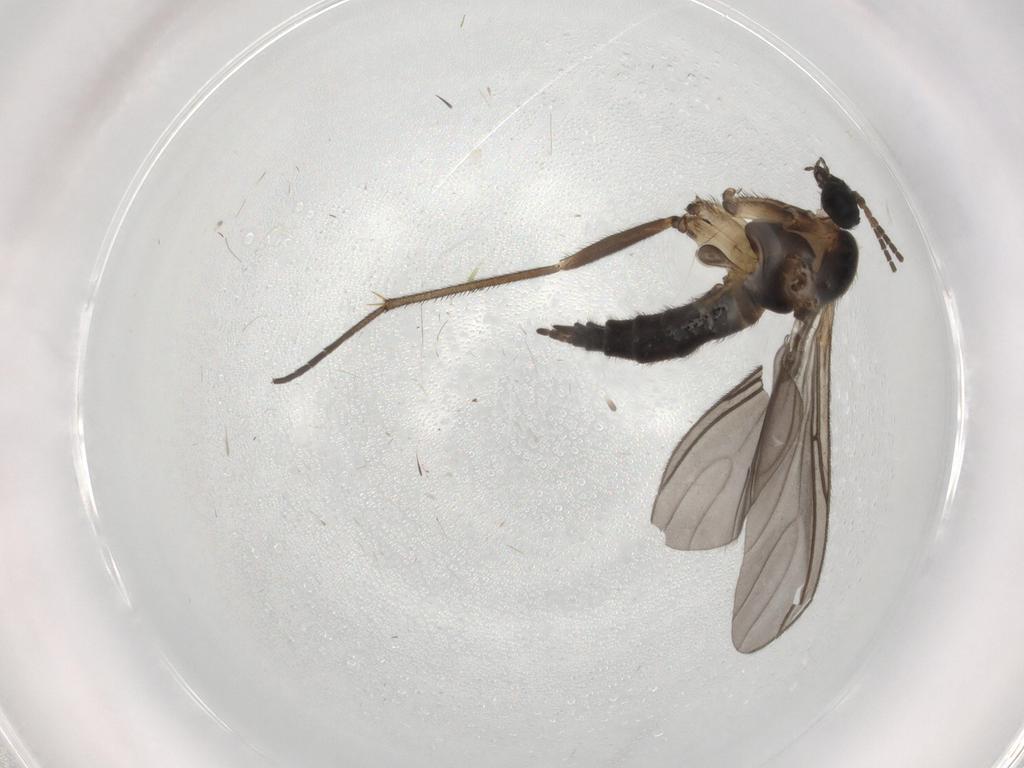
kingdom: Animalia
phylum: Arthropoda
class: Insecta
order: Diptera
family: Sciaridae
